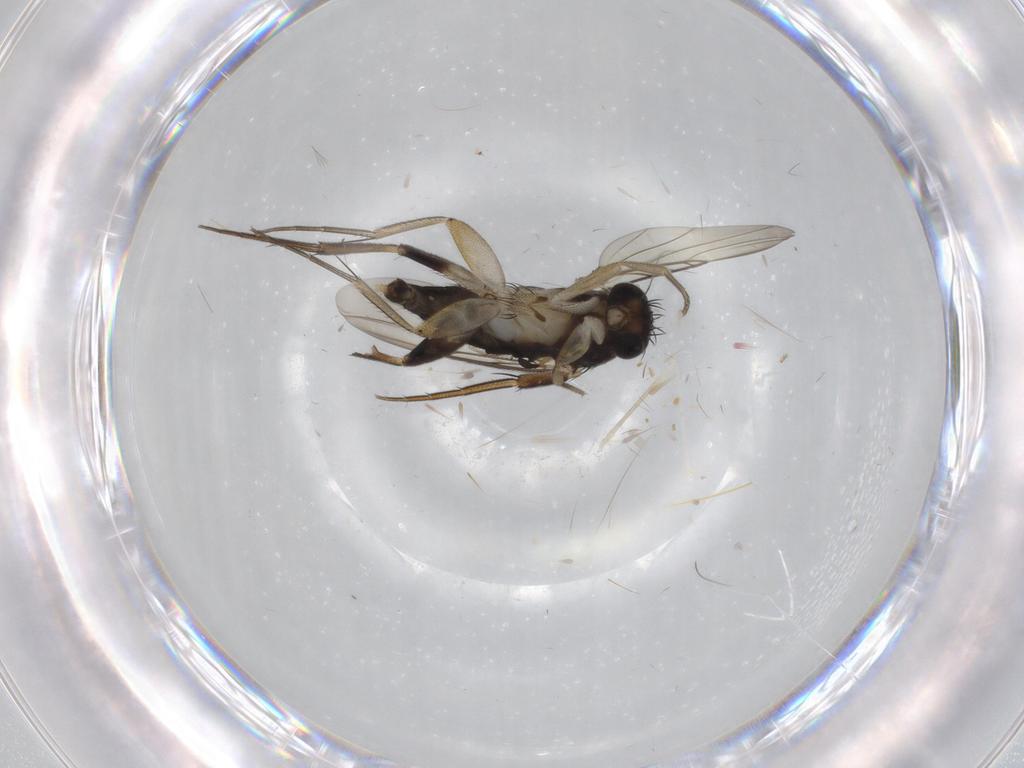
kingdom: Animalia
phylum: Arthropoda
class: Insecta
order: Diptera
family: Phoridae
